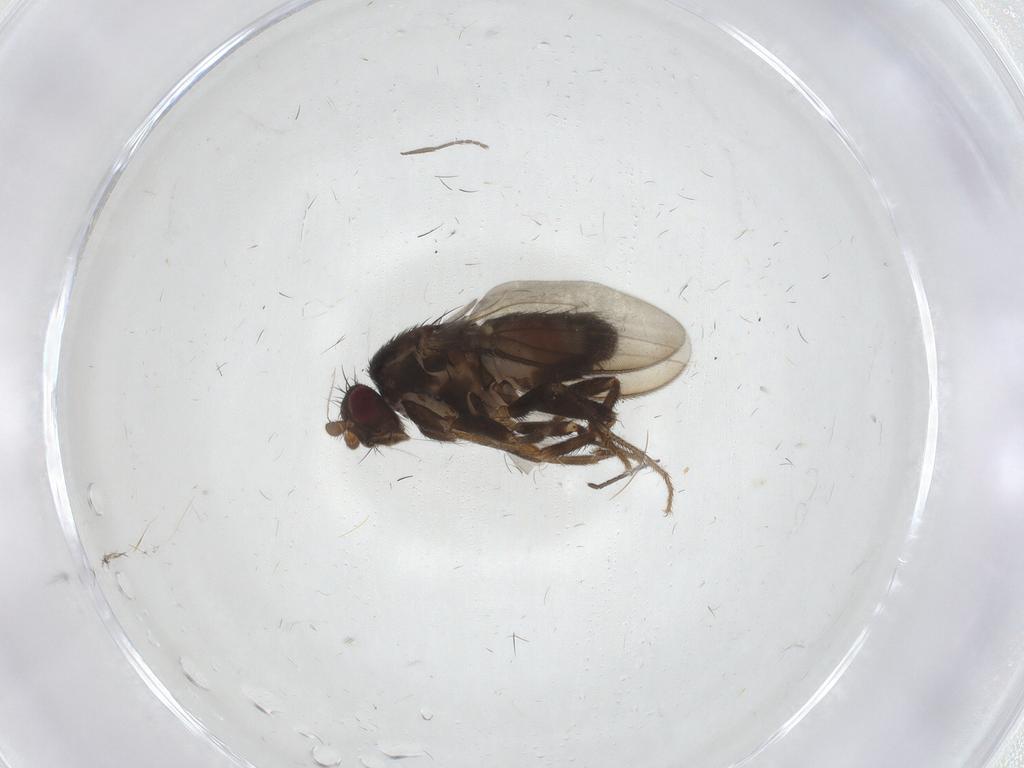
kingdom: Animalia
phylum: Arthropoda
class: Insecta
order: Diptera
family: Sphaeroceridae
